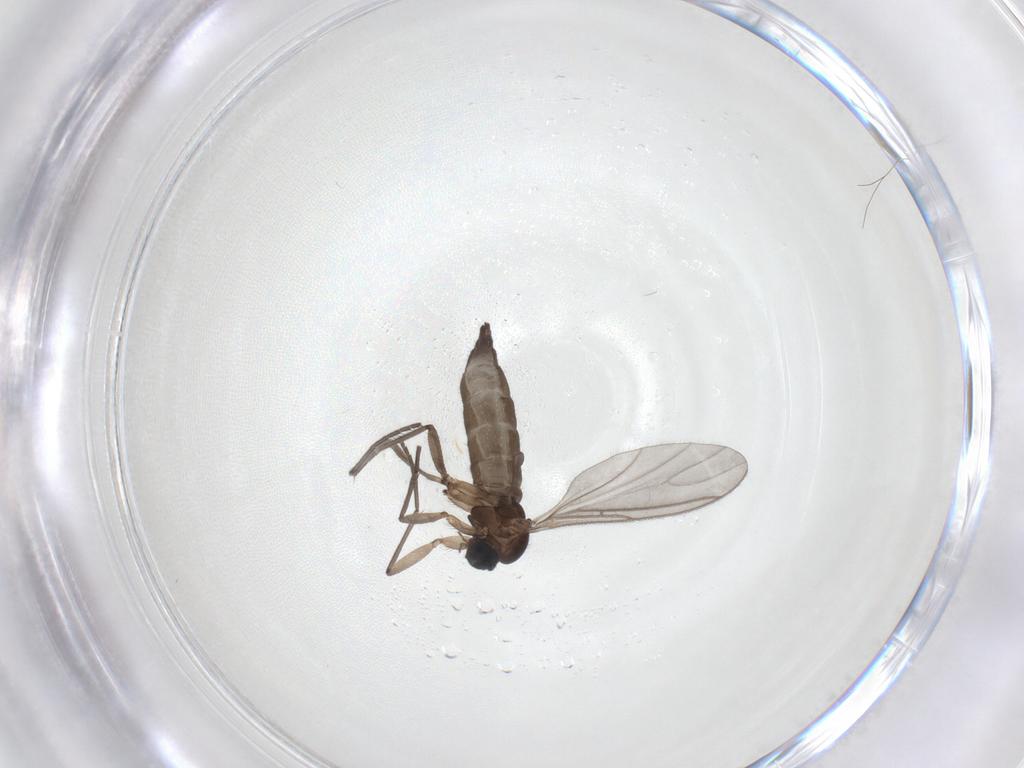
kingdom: Animalia
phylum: Arthropoda
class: Insecta
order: Diptera
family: Sciaridae
